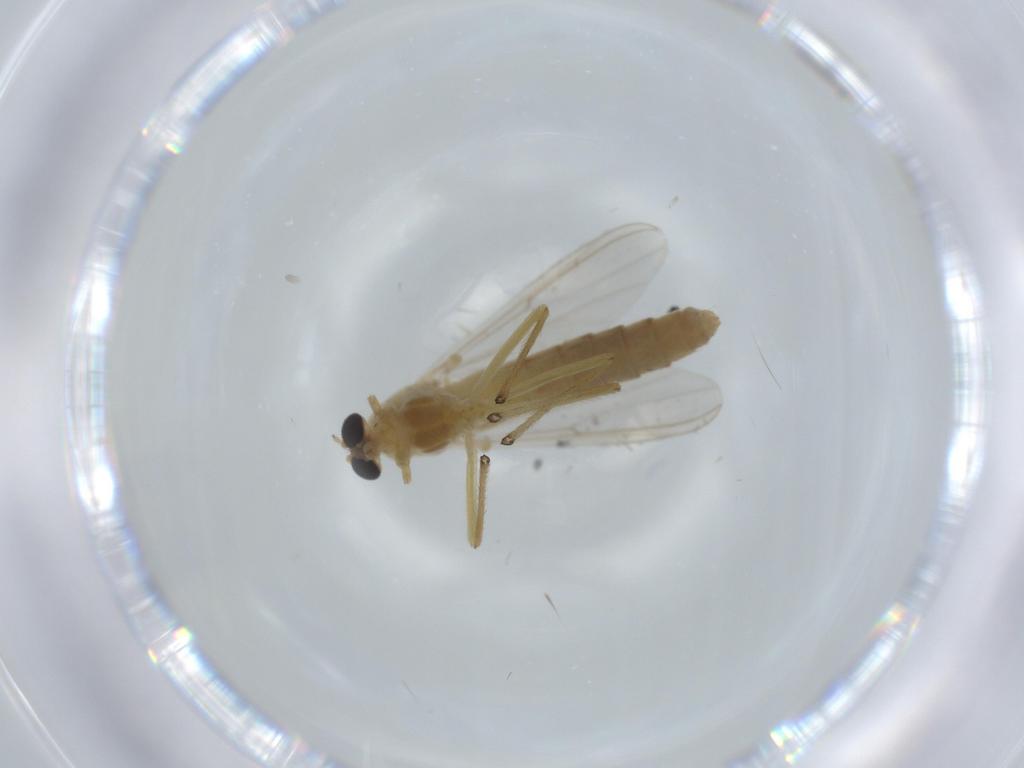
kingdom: Animalia
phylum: Arthropoda
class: Insecta
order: Diptera
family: Chironomidae
